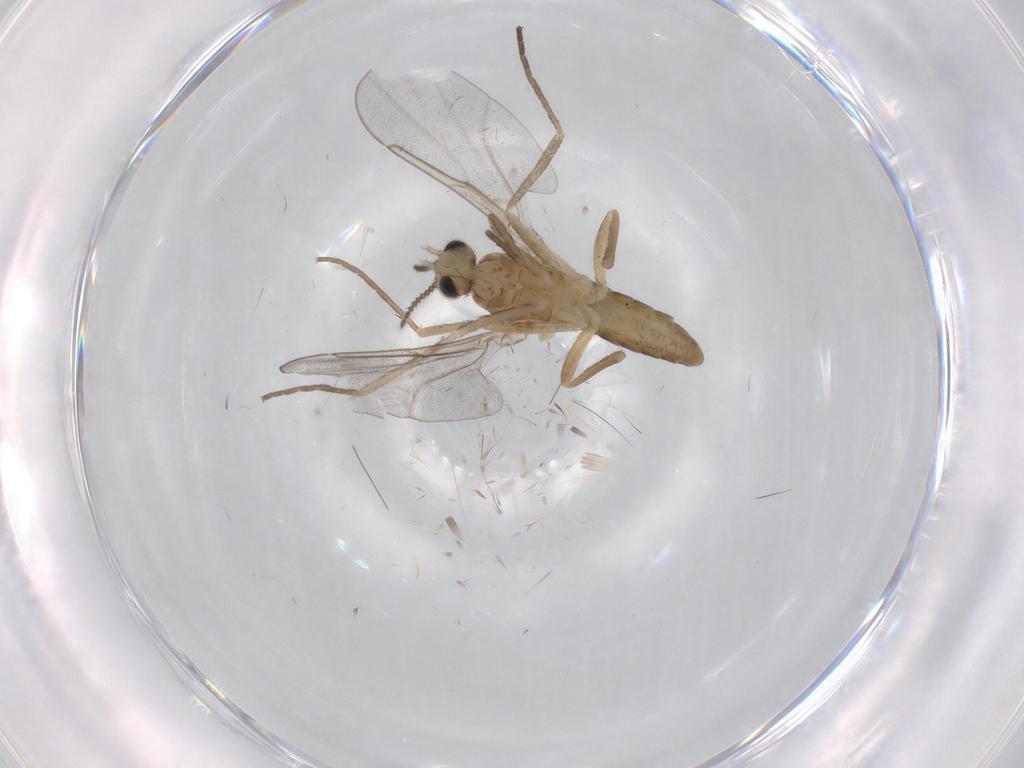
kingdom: Animalia
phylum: Arthropoda
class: Insecta
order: Diptera
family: Cecidomyiidae
